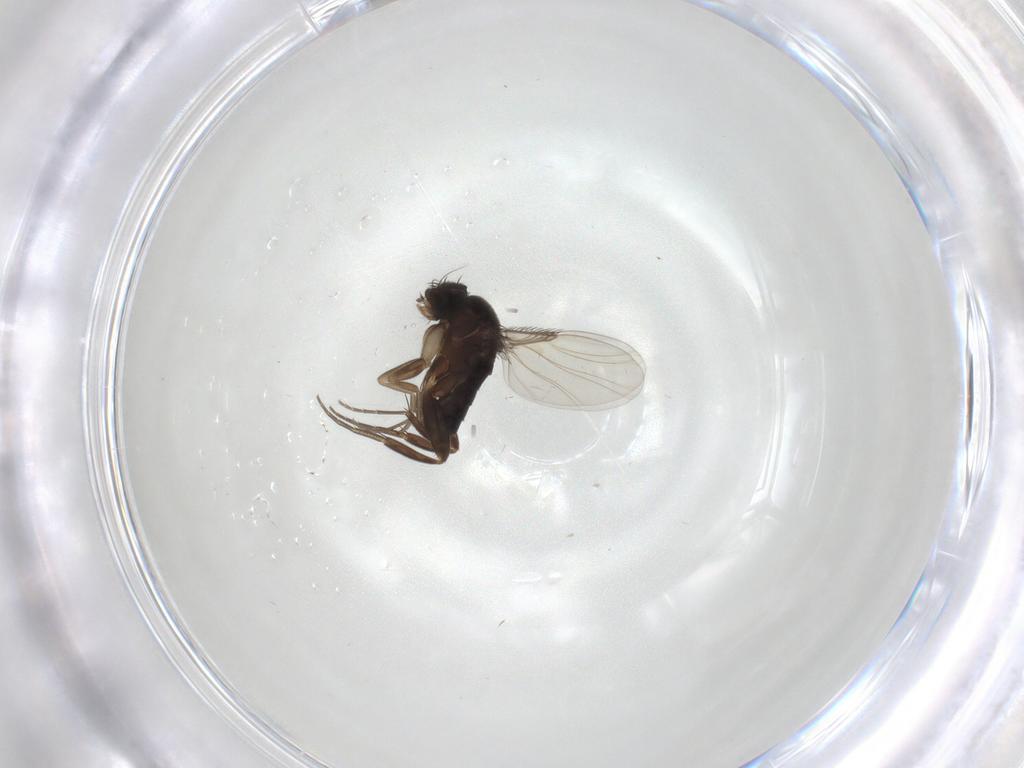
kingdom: Animalia
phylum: Arthropoda
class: Insecta
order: Diptera
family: Phoridae
